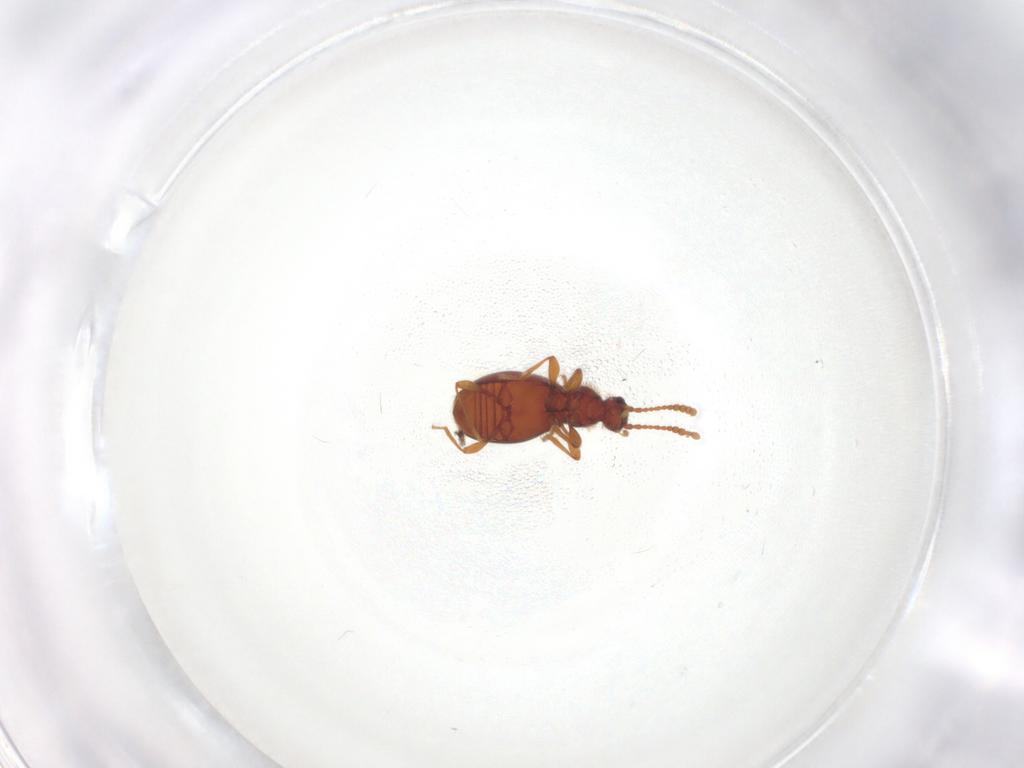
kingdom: Animalia
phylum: Arthropoda
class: Insecta
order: Coleoptera
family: Staphylinidae
